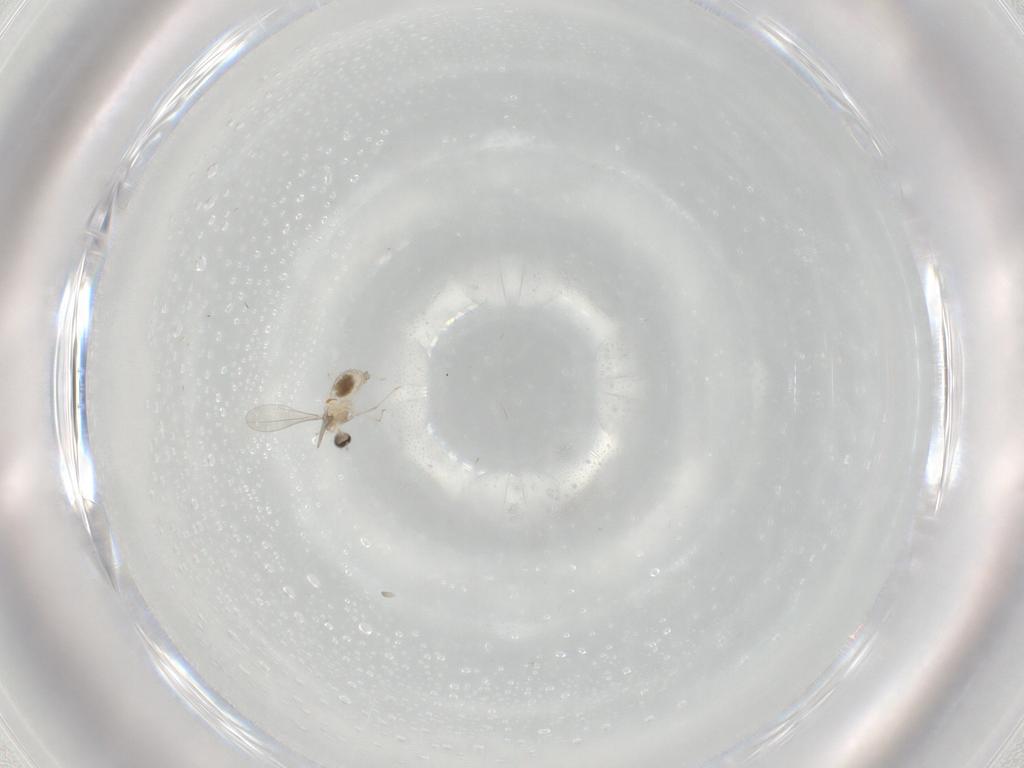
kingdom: Animalia
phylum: Arthropoda
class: Insecta
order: Diptera
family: Cecidomyiidae
